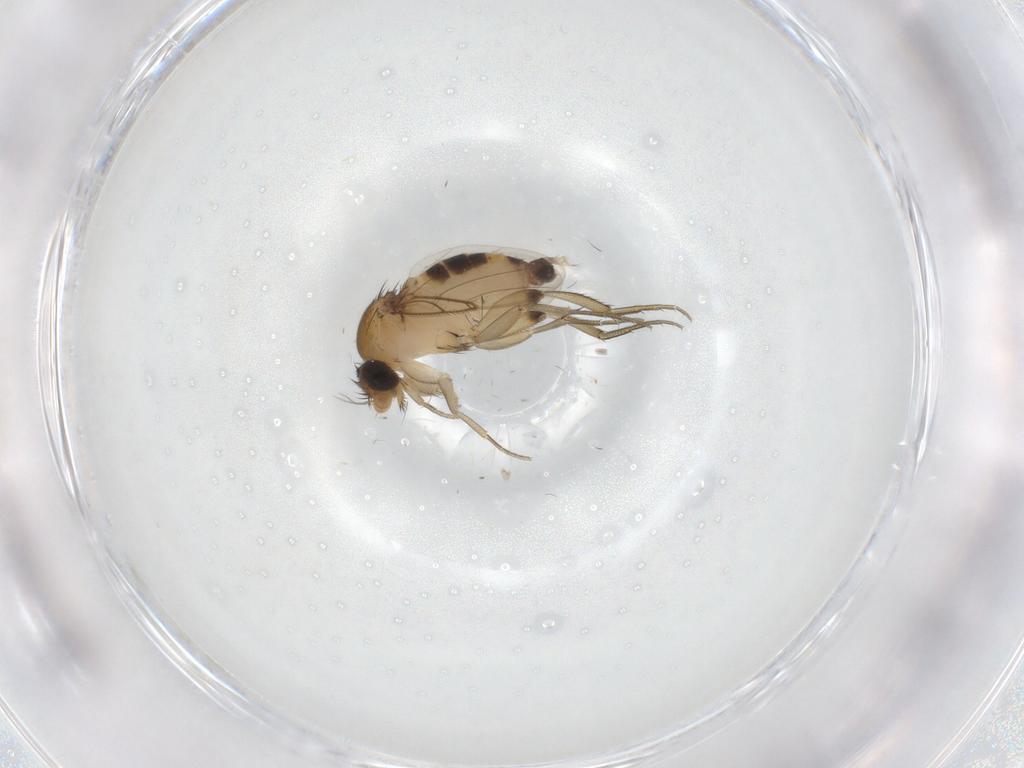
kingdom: Animalia
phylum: Arthropoda
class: Insecta
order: Diptera
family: Phoridae
